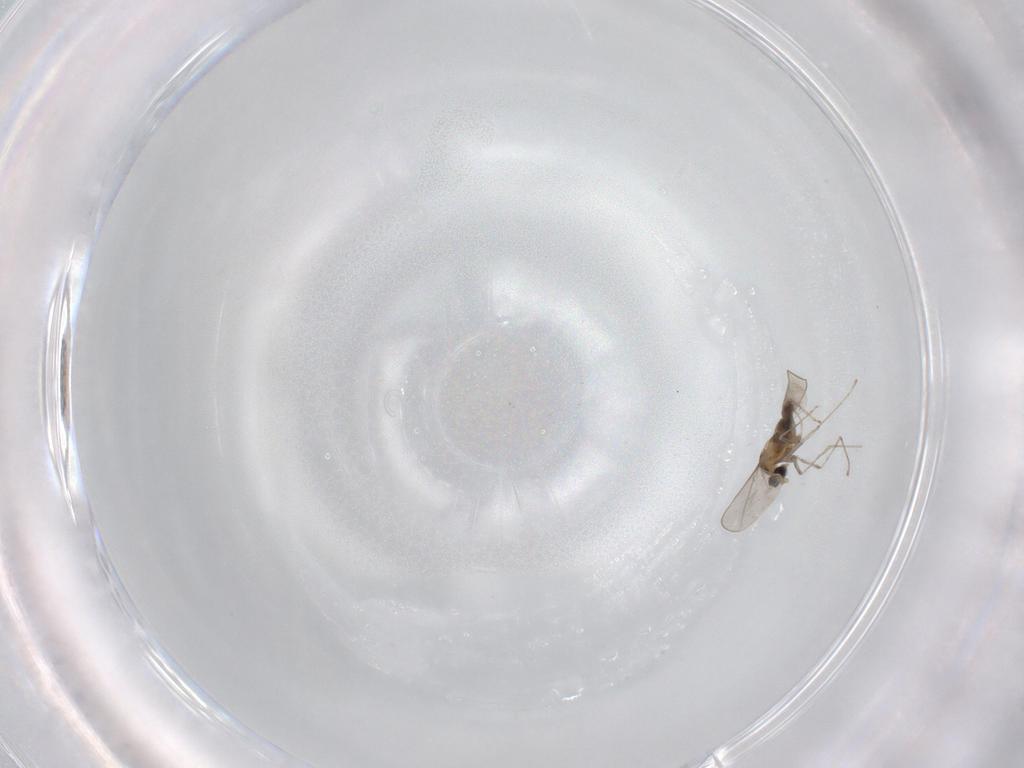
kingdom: Animalia
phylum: Arthropoda
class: Insecta
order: Diptera
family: Cecidomyiidae
